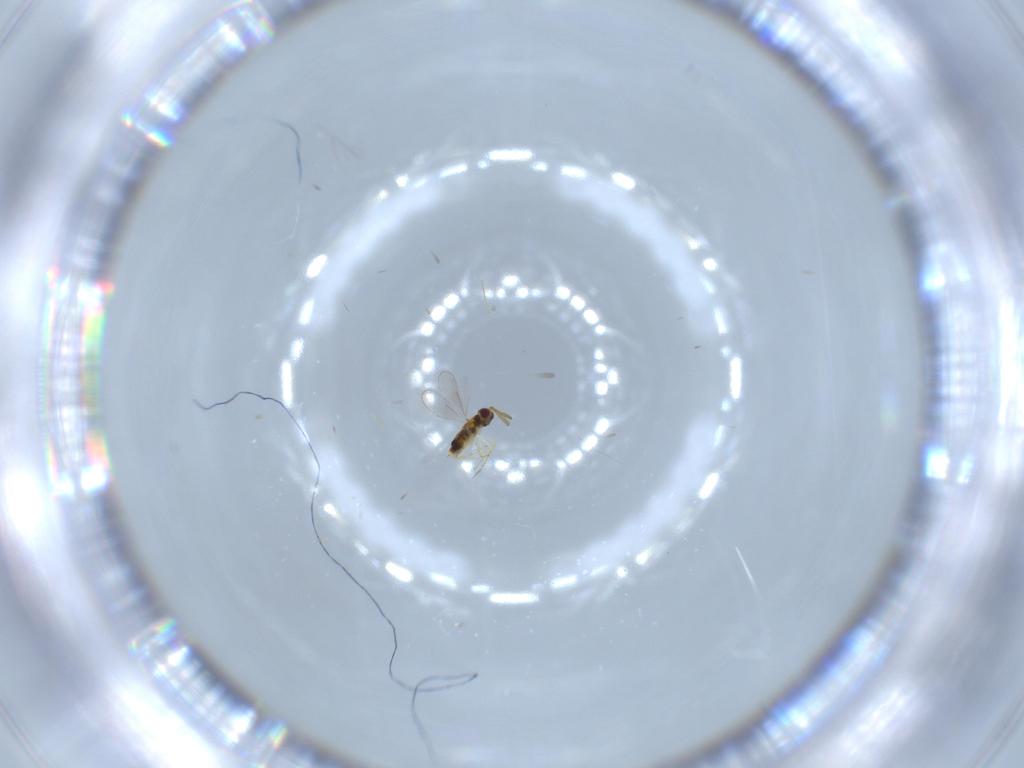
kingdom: Animalia
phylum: Arthropoda
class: Insecta
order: Hymenoptera
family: Aphelinidae
